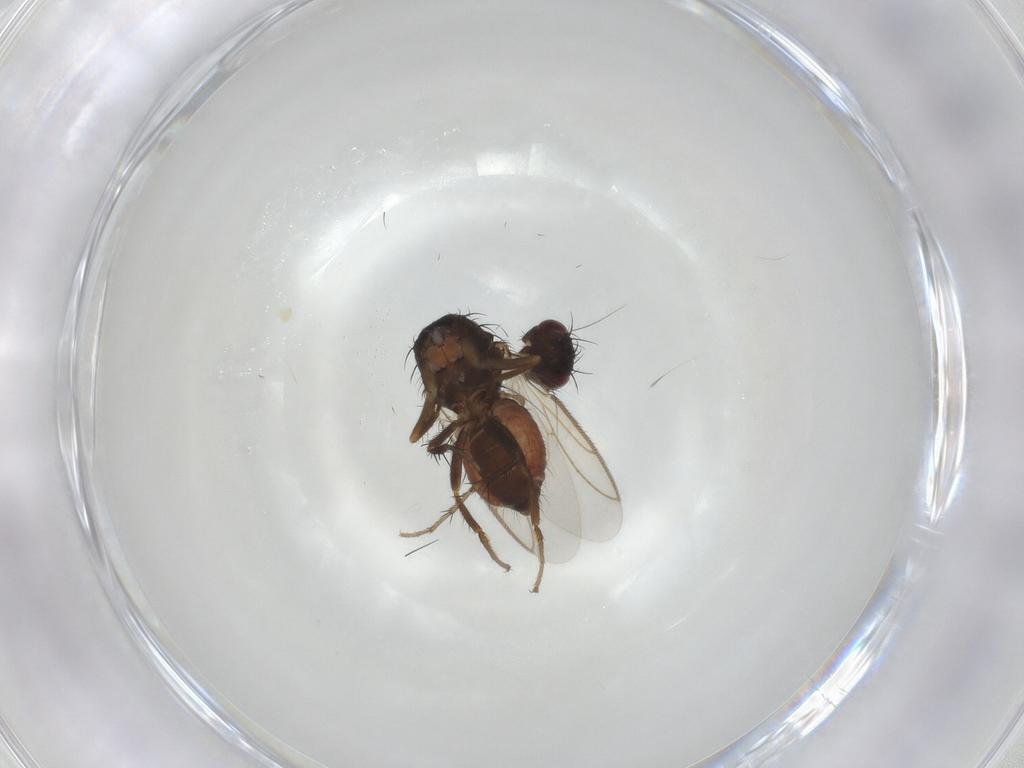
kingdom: Animalia
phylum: Arthropoda
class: Insecta
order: Diptera
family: Sphaeroceridae
